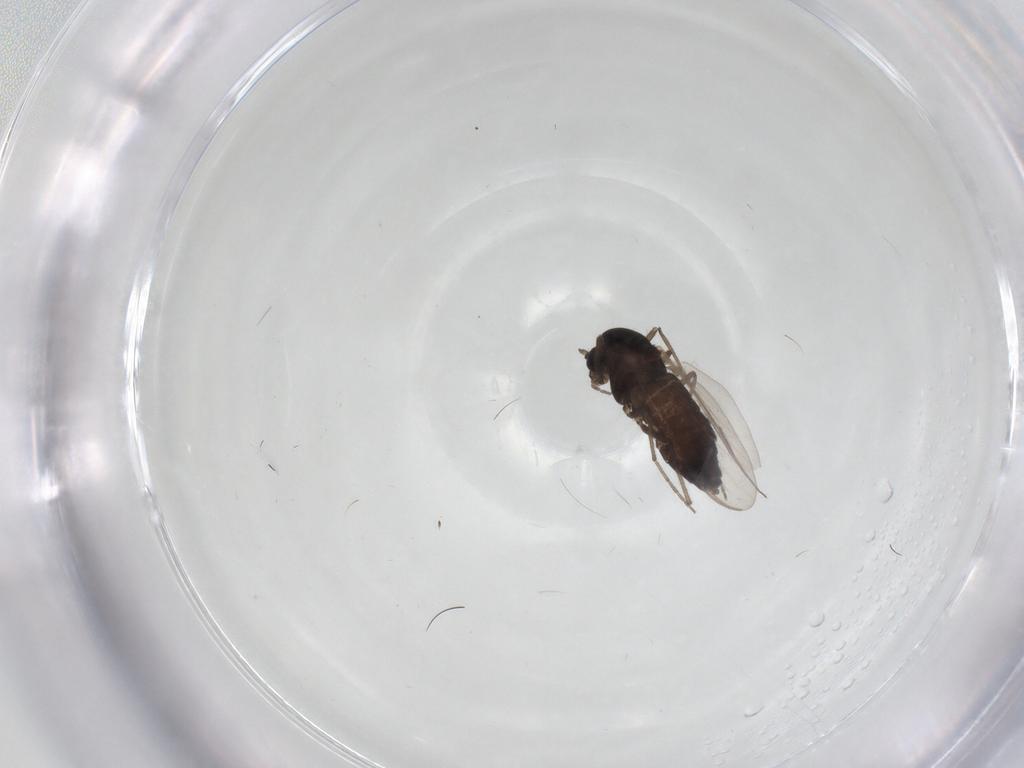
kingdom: Animalia
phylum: Arthropoda
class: Insecta
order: Diptera
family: Chironomidae
